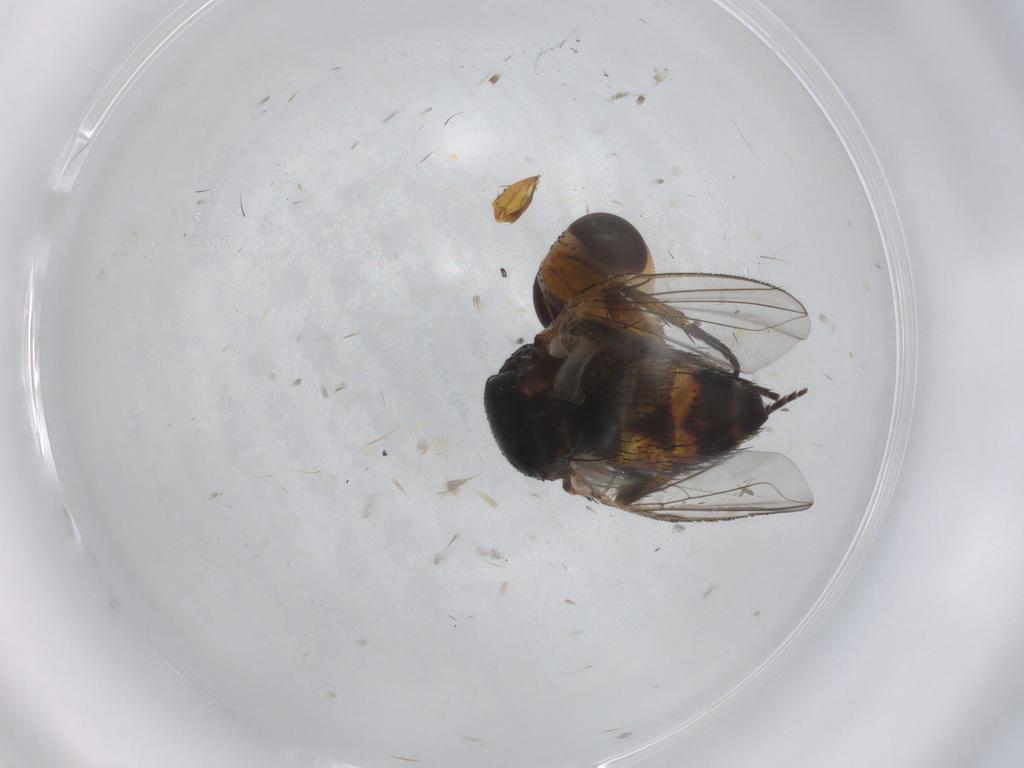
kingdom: Animalia
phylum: Arthropoda
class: Insecta
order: Diptera
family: Tachinidae
